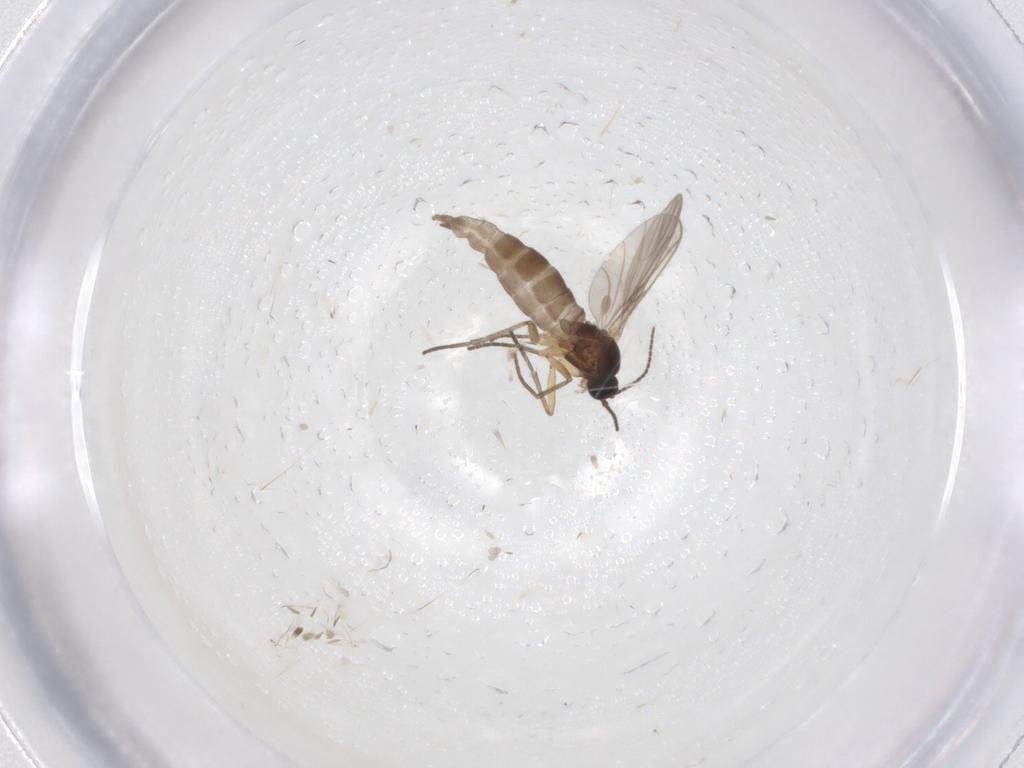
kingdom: Animalia
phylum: Arthropoda
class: Insecta
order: Diptera
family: Sciaridae
